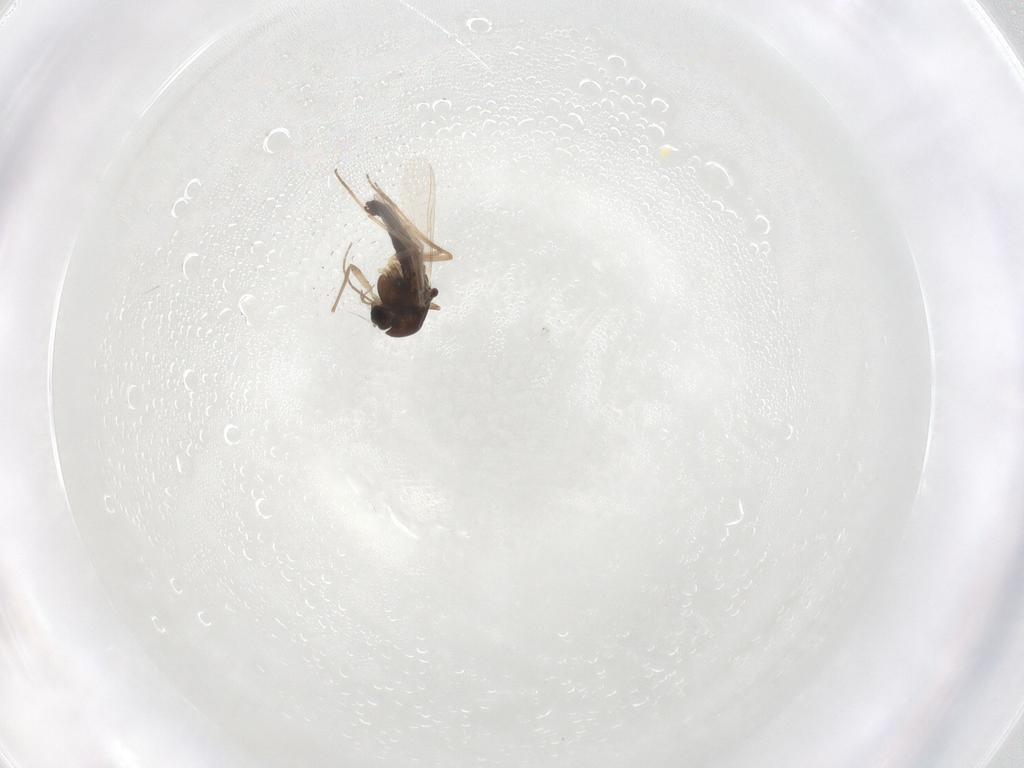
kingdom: Animalia
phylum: Arthropoda
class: Insecta
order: Diptera
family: Chironomidae
